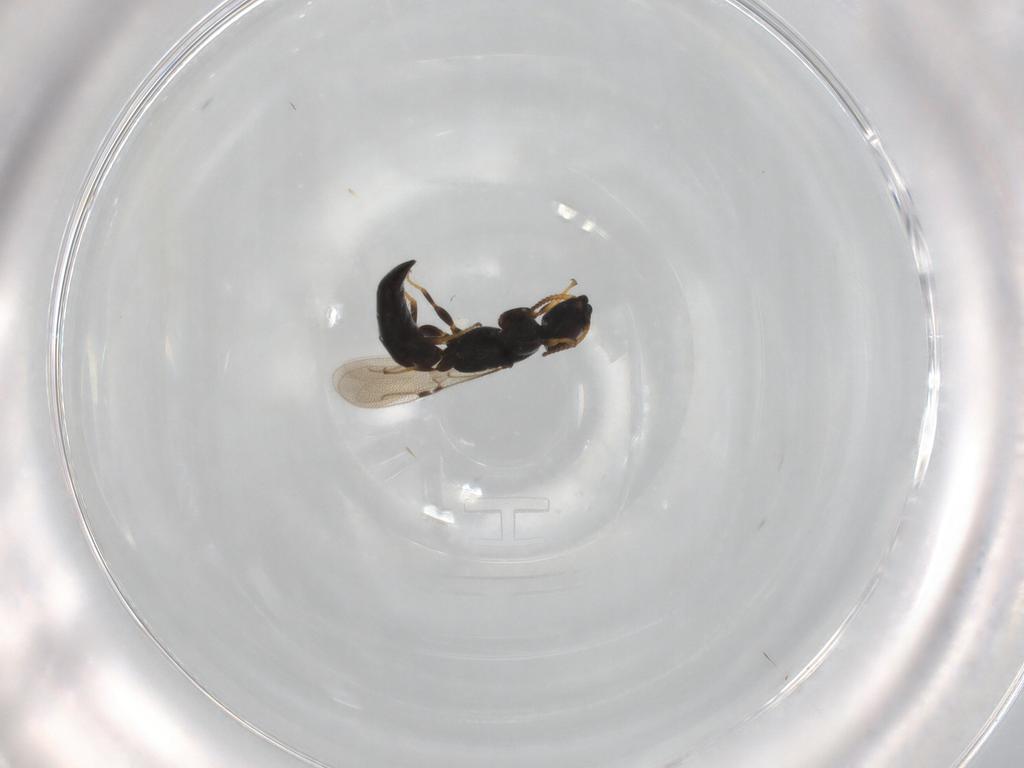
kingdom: Animalia
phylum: Arthropoda
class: Insecta
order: Hymenoptera
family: Bethylidae
